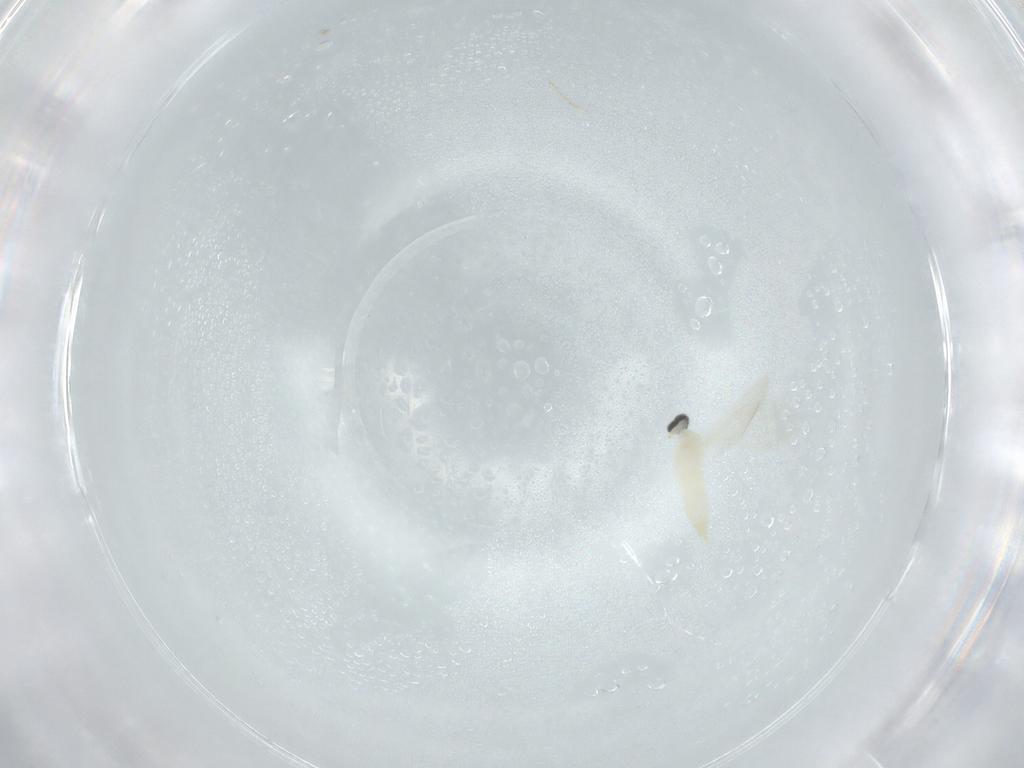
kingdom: Animalia
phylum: Arthropoda
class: Insecta
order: Diptera
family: Cecidomyiidae
